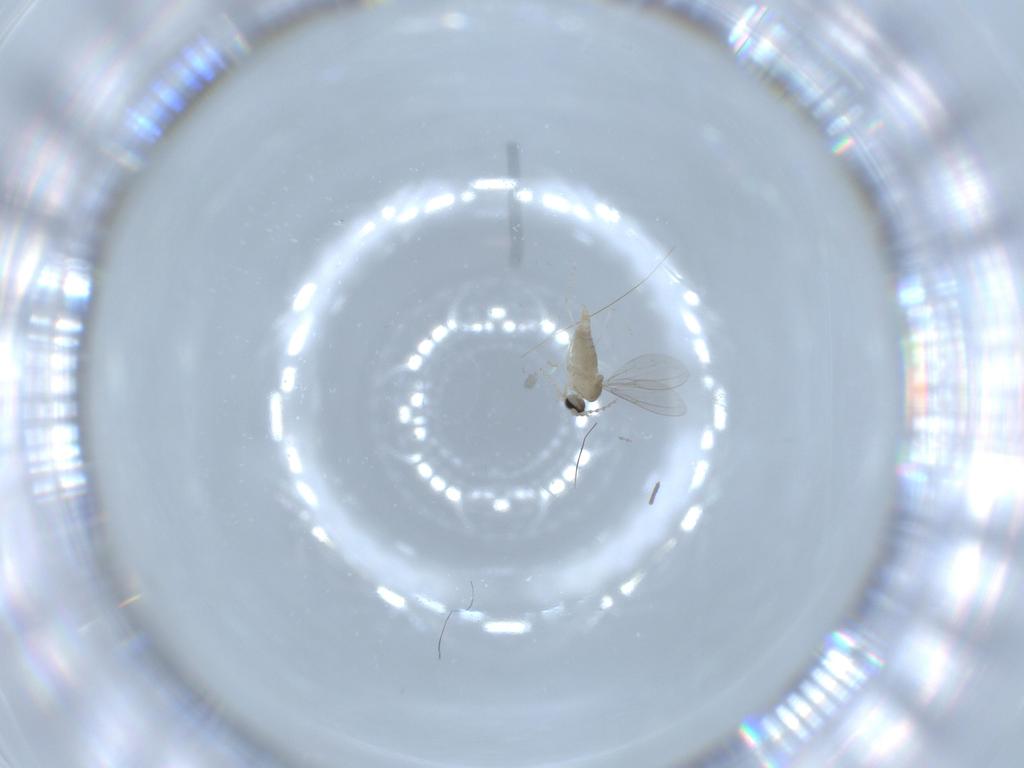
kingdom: Animalia
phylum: Arthropoda
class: Insecta
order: Diptera
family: Cecidomyiidae
